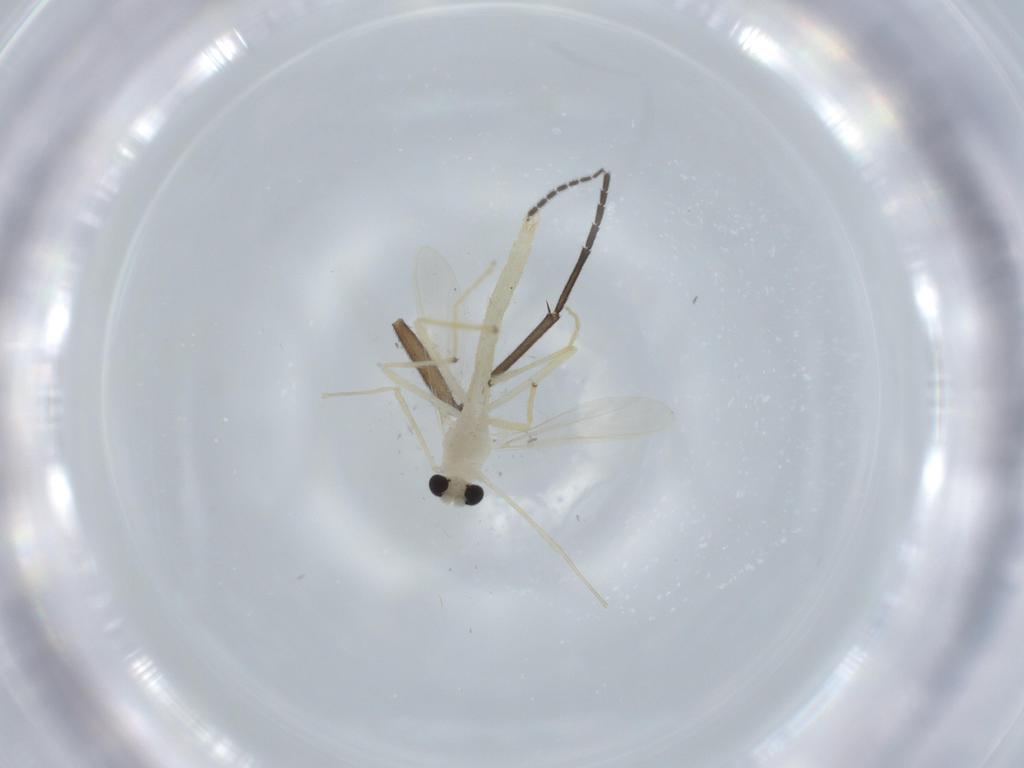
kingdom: Animalia
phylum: Arthropoda
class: Insecta
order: Diptera
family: Chironomidae
